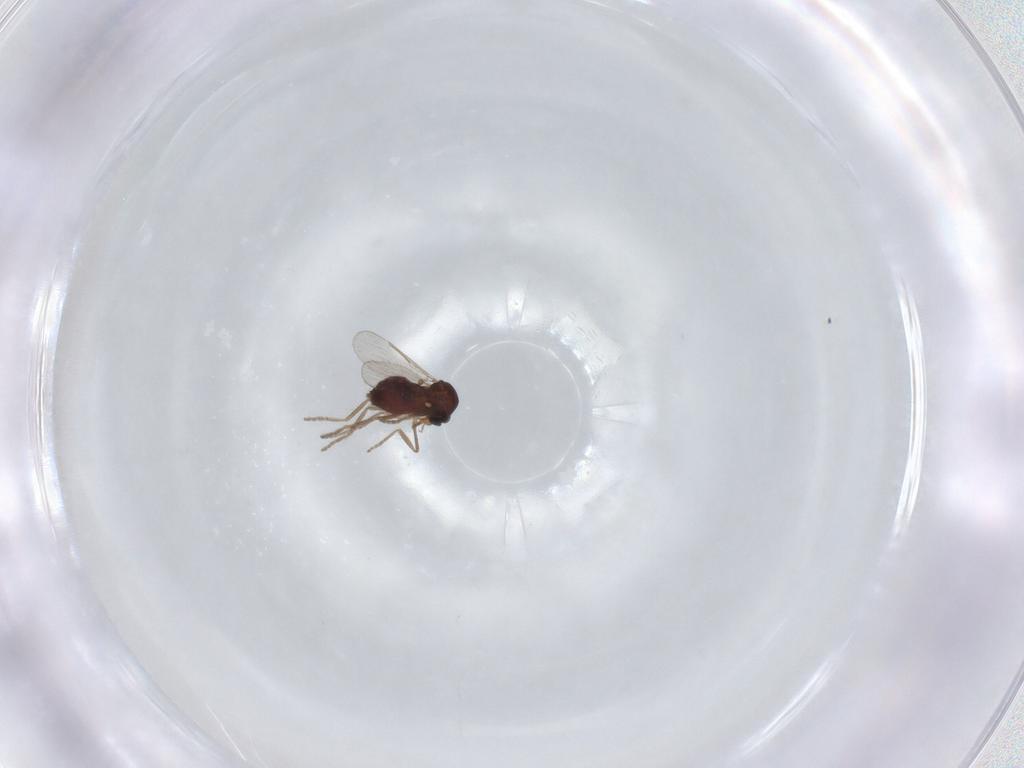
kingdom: Animalia
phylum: Arthropoda
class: Insecta
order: Diptera
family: Ceratopogonidae
